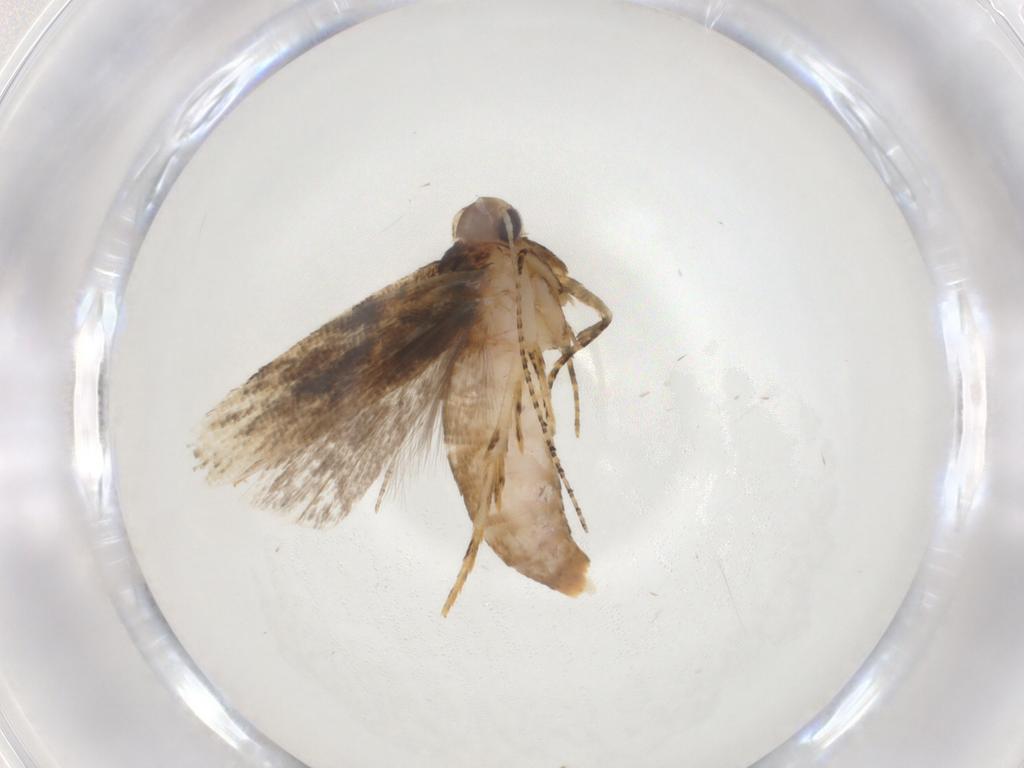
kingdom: Animalia
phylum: Arthropoda
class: Insecta
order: Lepidoptera
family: Gelechiidae
